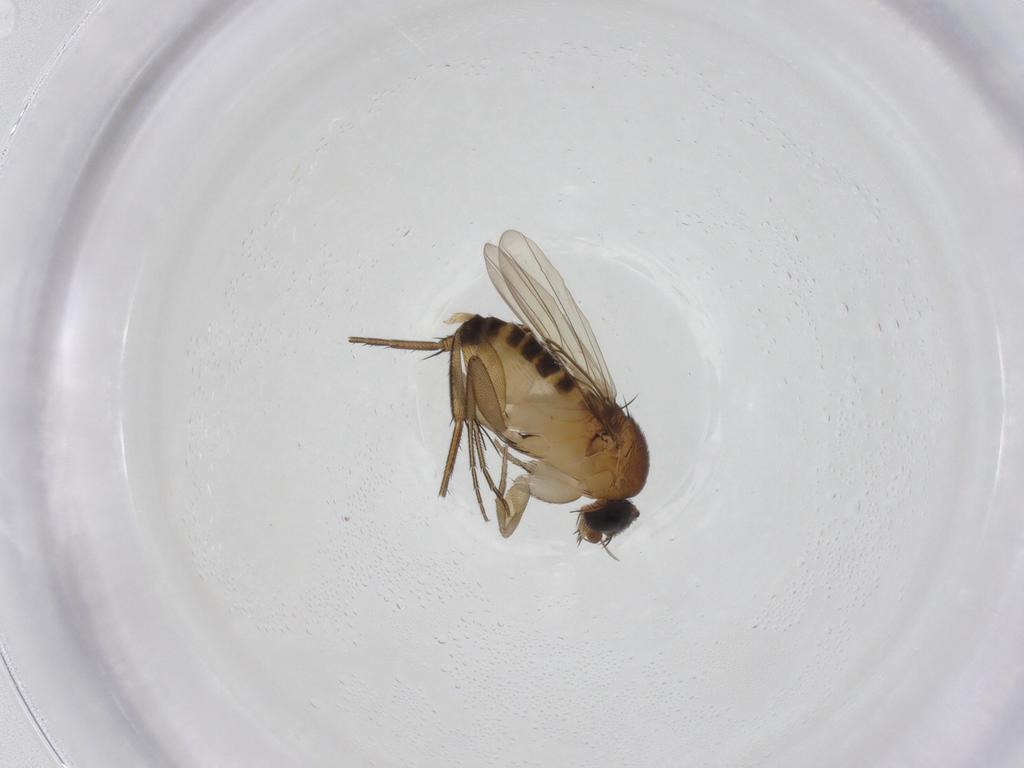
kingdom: Animalia
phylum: Arthropoda
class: Insecta
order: Diptera
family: Phoridae
